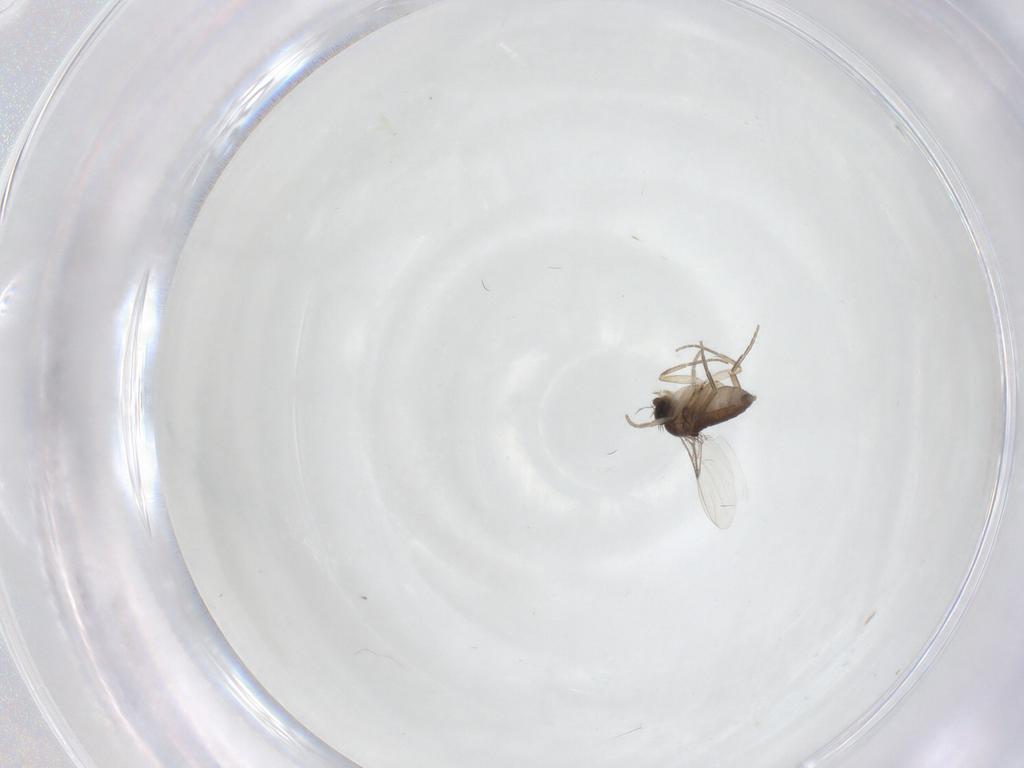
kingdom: Animalia
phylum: Arthropoda
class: Insecta
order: Diptera
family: Phoridae
